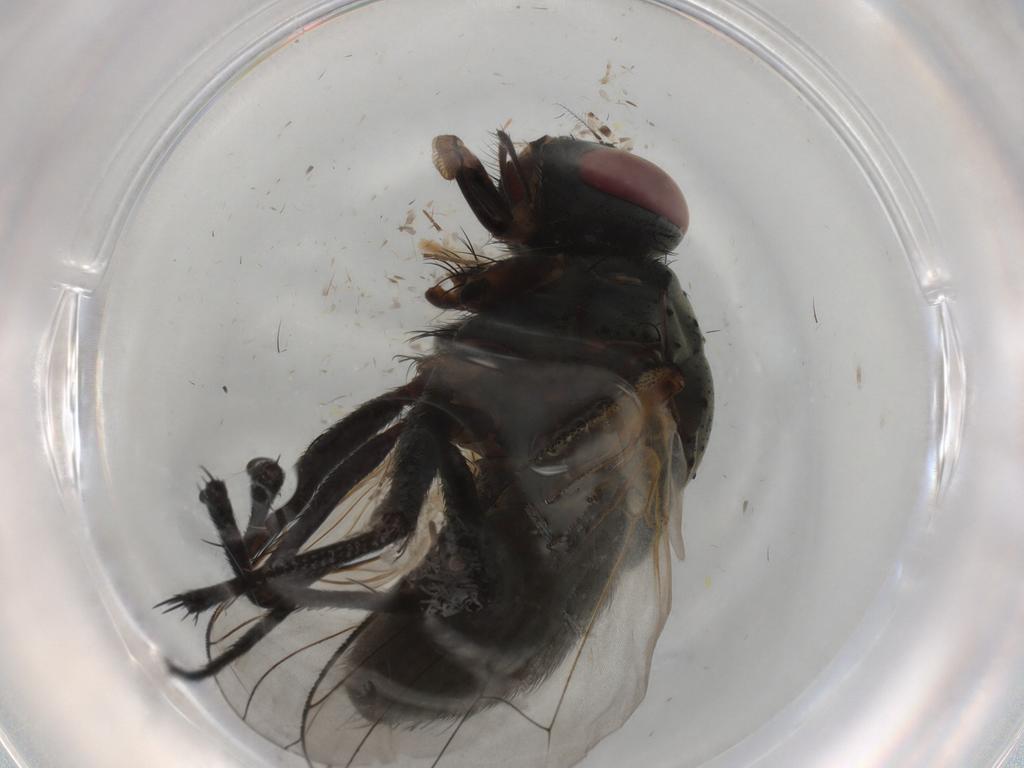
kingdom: Animalia
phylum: Arthropoda
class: Insecta
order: Diptera
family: Muscidae
